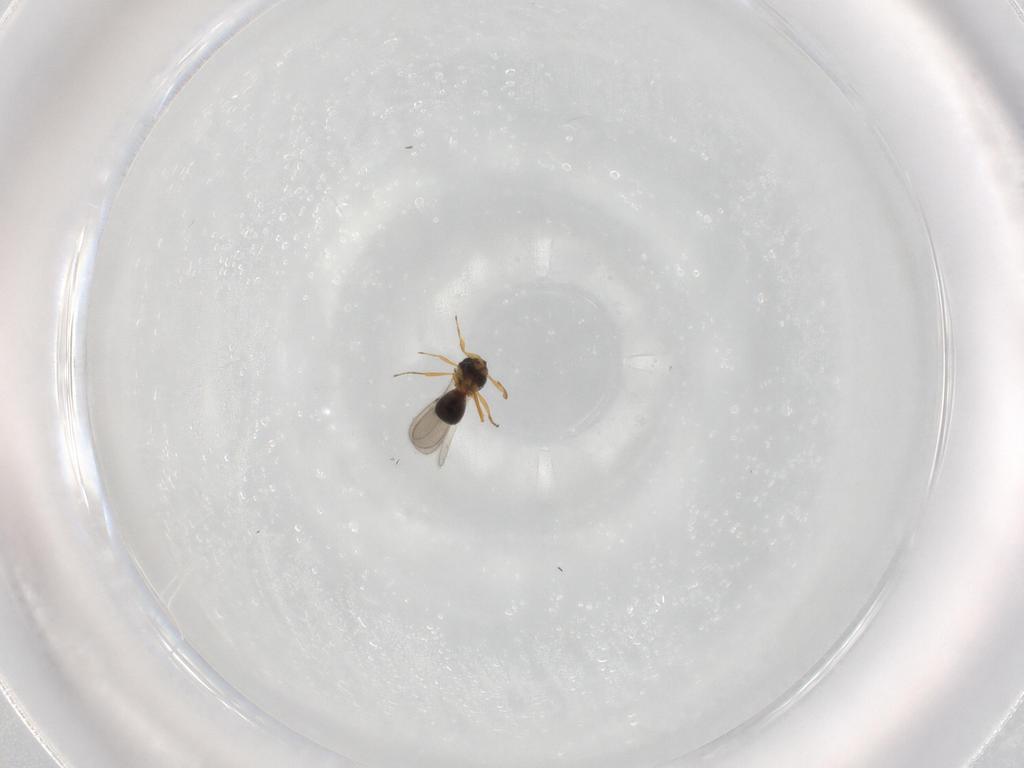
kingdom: Animalia
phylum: Arthropoda
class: Insecta
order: Hymenoptera
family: Scelionidae
